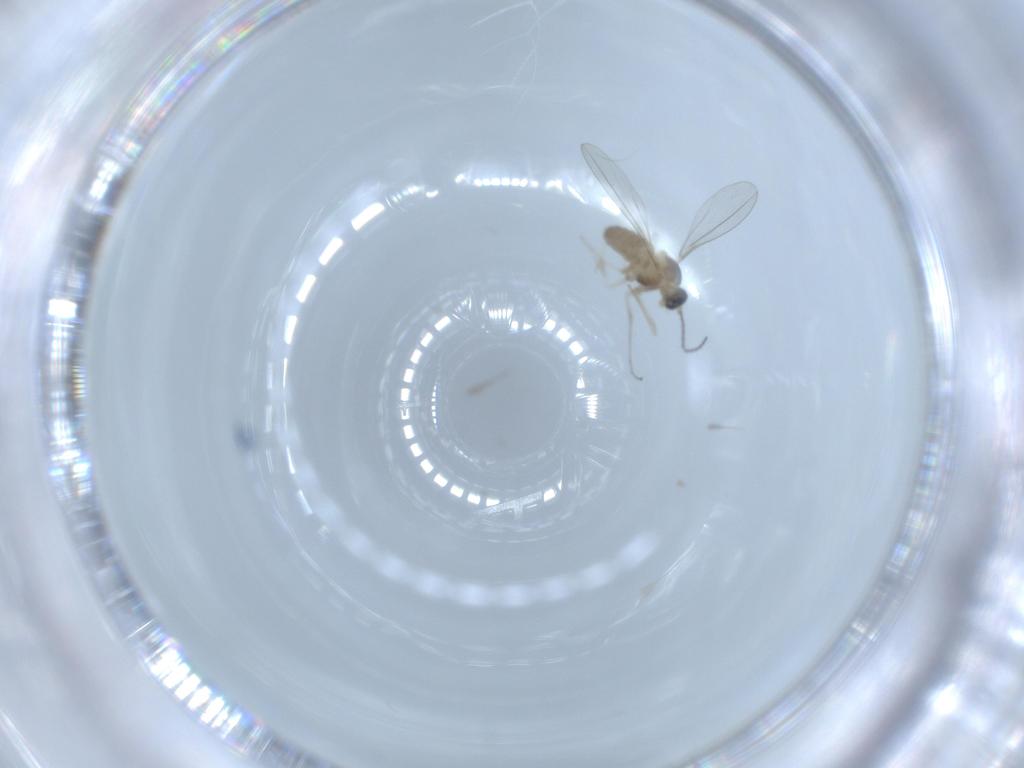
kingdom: Animalia
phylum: Arthropoda
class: Insecta
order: Diptera
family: Cecidomyiidae
